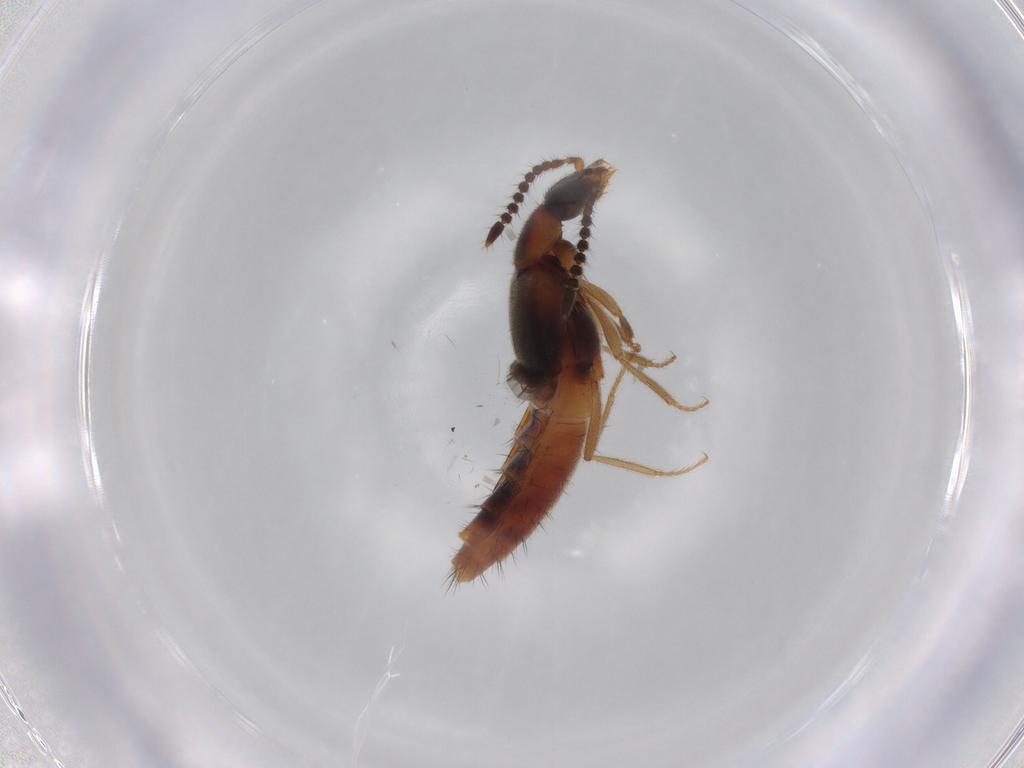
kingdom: Animalia
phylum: Arthropoda
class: Insecta
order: Coleoptera
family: Staphylinidae
